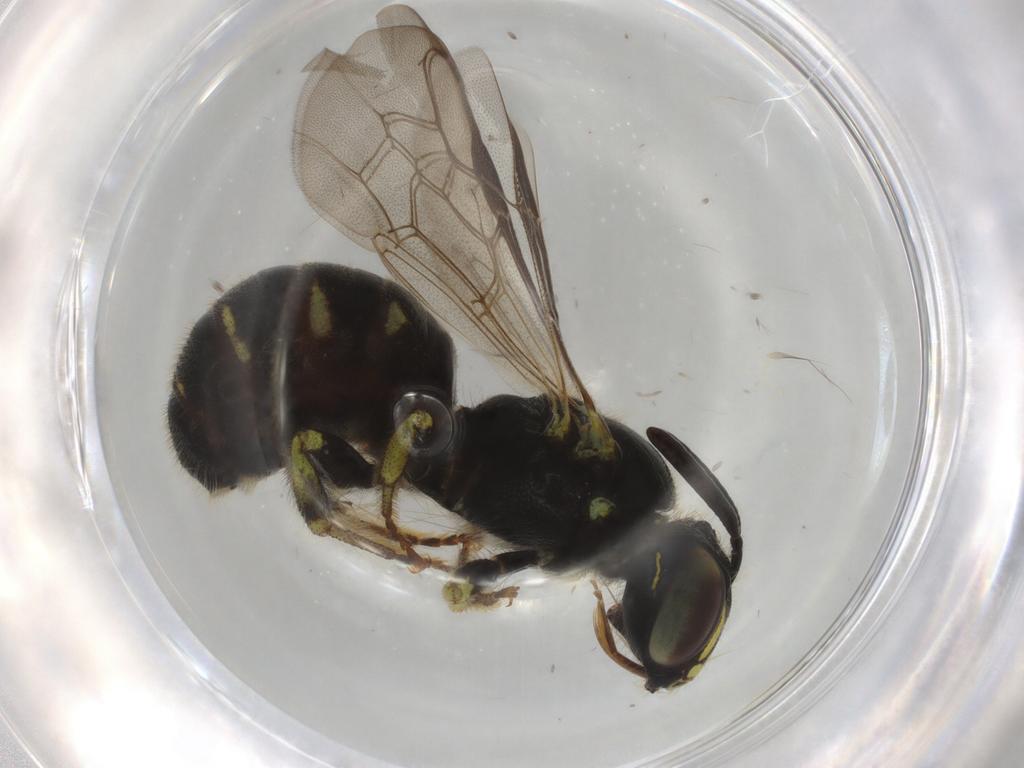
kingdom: Animalia
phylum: Arthropoda
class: Insecta
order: Hymenoptera
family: Apidae
